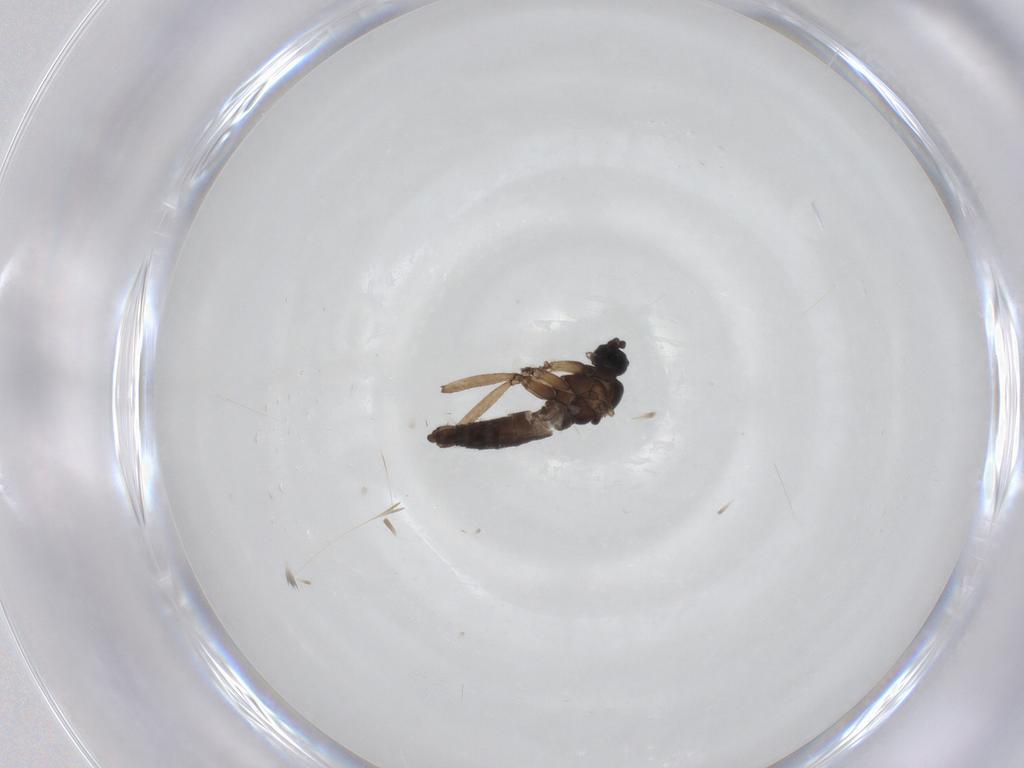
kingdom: Animalia
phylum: Arthropoda
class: Insecta
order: Diptera
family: Sciaridae
